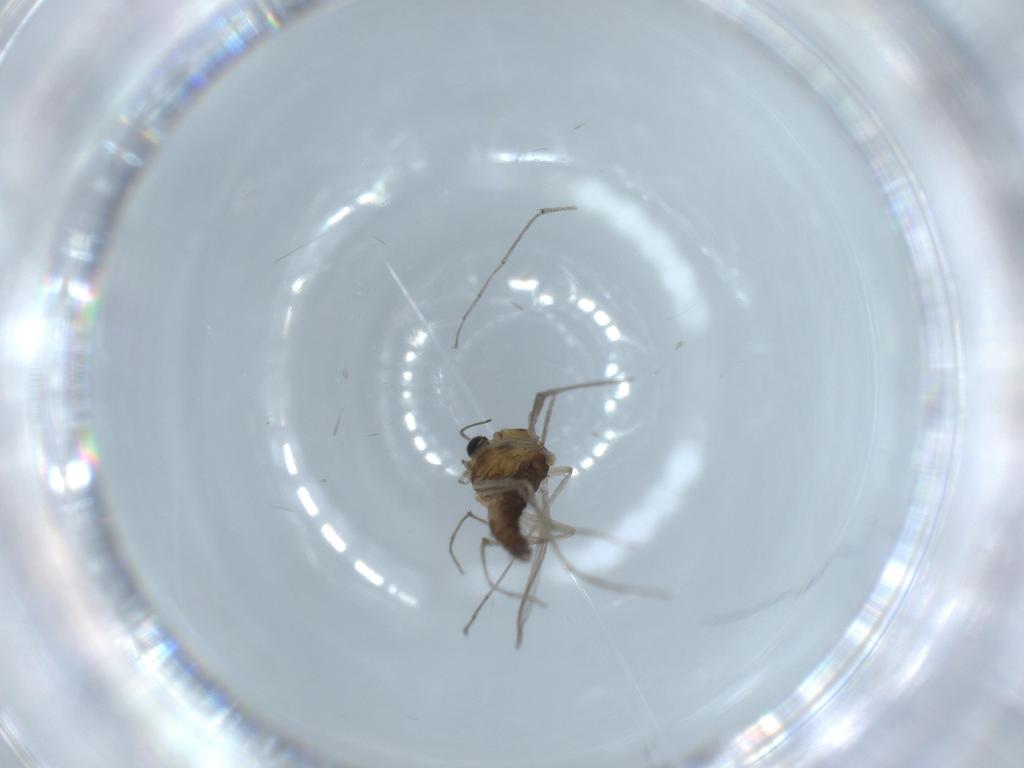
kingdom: Animalia
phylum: Arthropoda
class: Insecta
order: Diptera
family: Chironomidae
